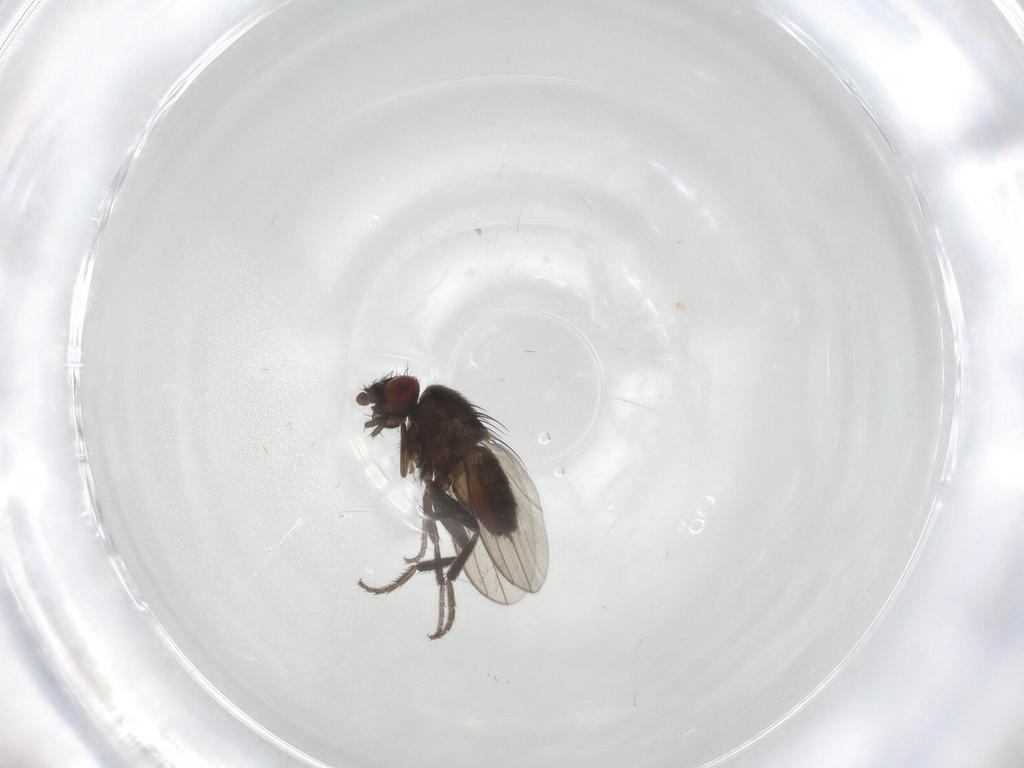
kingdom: Animalia
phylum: Arthropoda
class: Insecta
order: Diptera
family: Milichiidae
